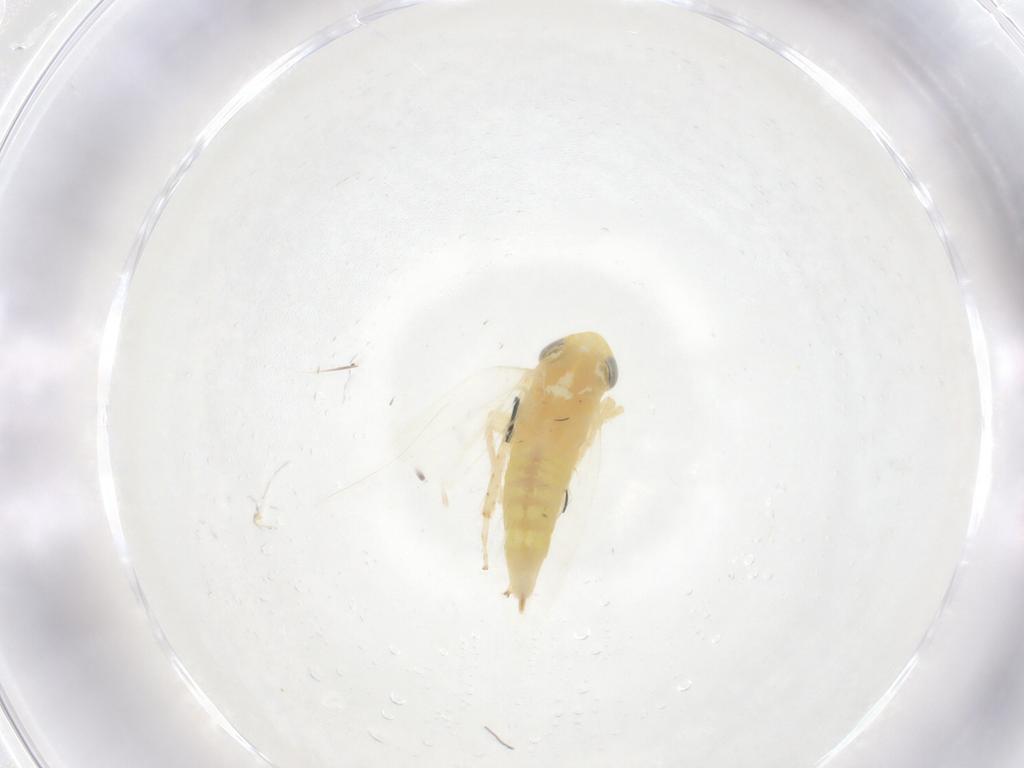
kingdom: Animalia
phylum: Arthropoda
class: Insecta
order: Hemiptera
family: Cicadellidae
